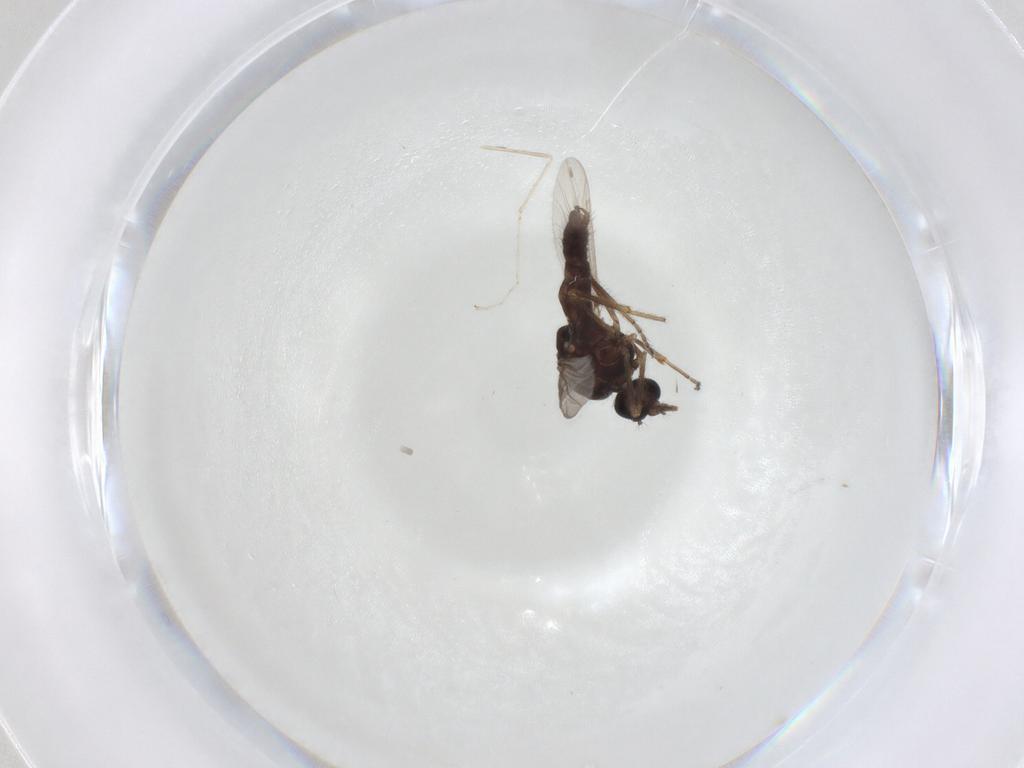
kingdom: Animalia
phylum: Arthropoda
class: Insecta
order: Diptera
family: Ceratopogonidae
